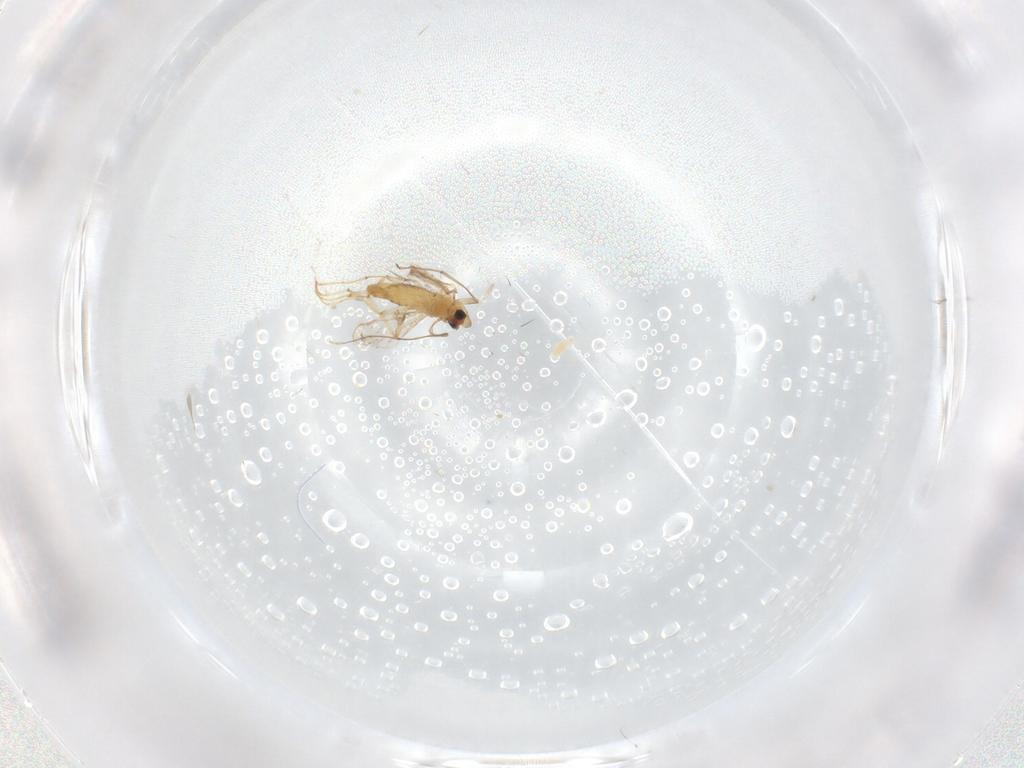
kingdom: Animalia
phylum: Arthropoda
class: Insecta
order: Diptera
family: Chironomidae
